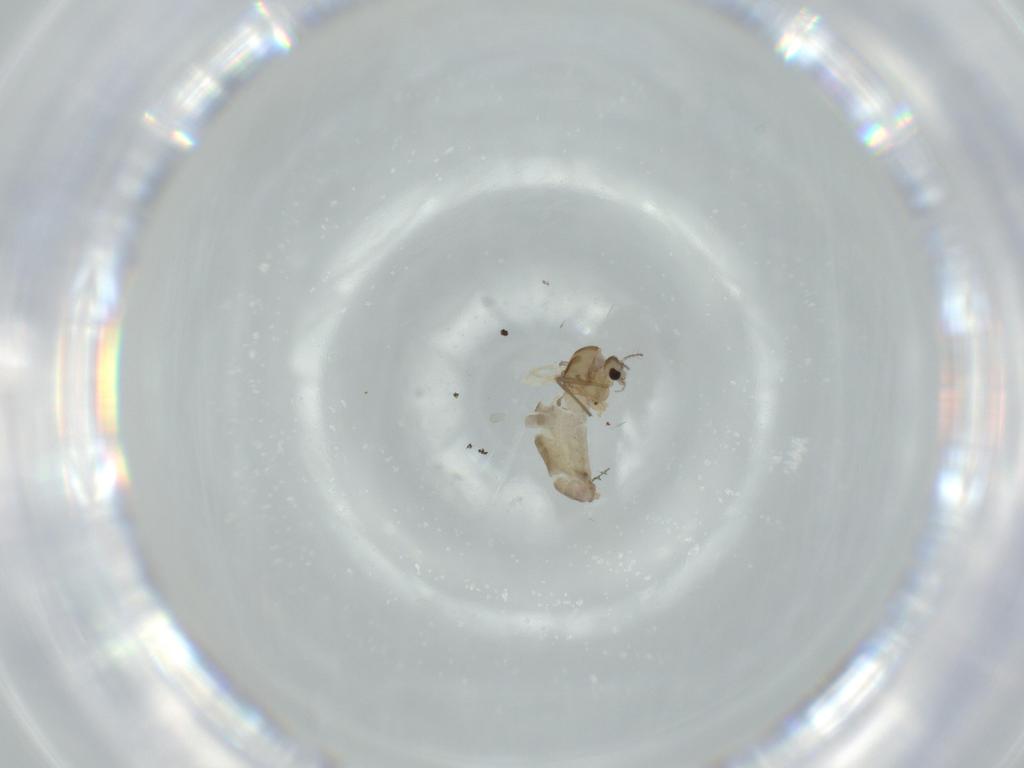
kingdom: Animalia
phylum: Arthropoda
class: Insecta
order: Diptera
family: Chironomidae
